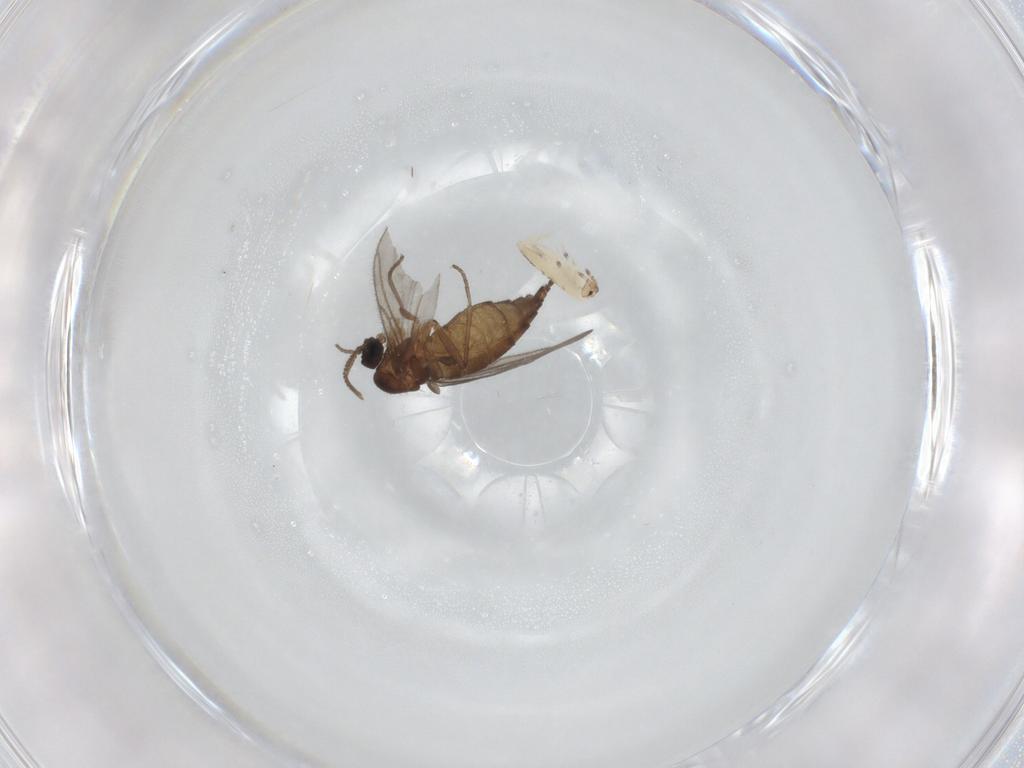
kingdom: Animalia
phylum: Arthropoda
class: Insecta
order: Diptera
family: Sciaridae
